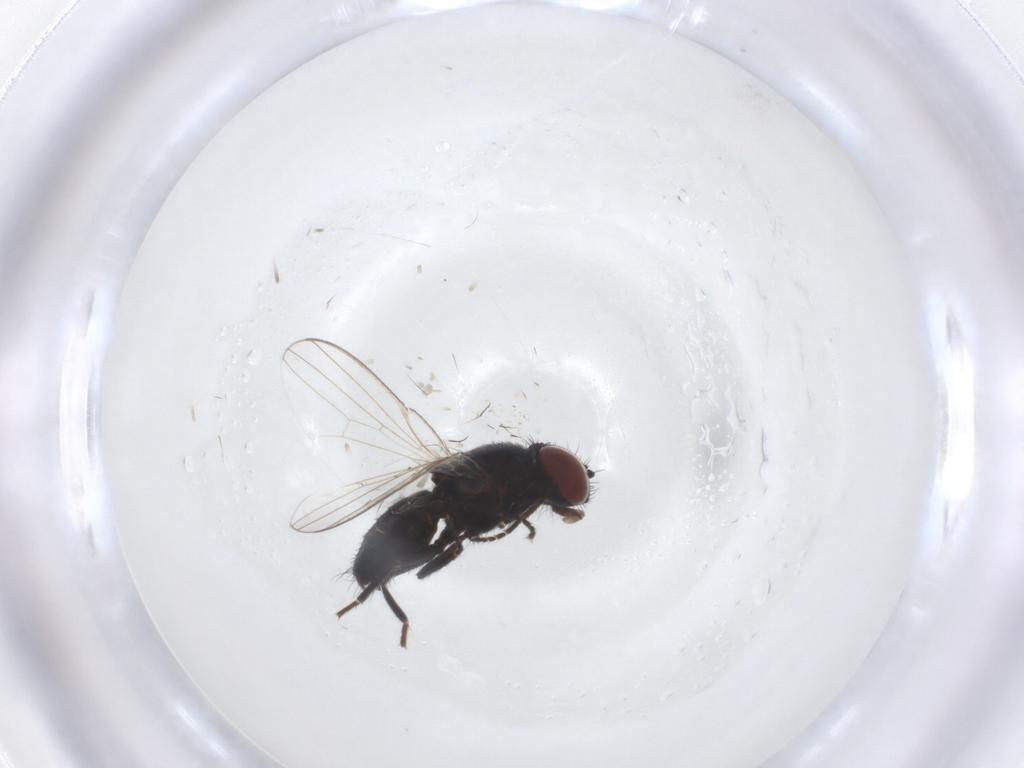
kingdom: Animalia
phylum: Arthropoda
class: Insecta
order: Diptera
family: Milichiidae
